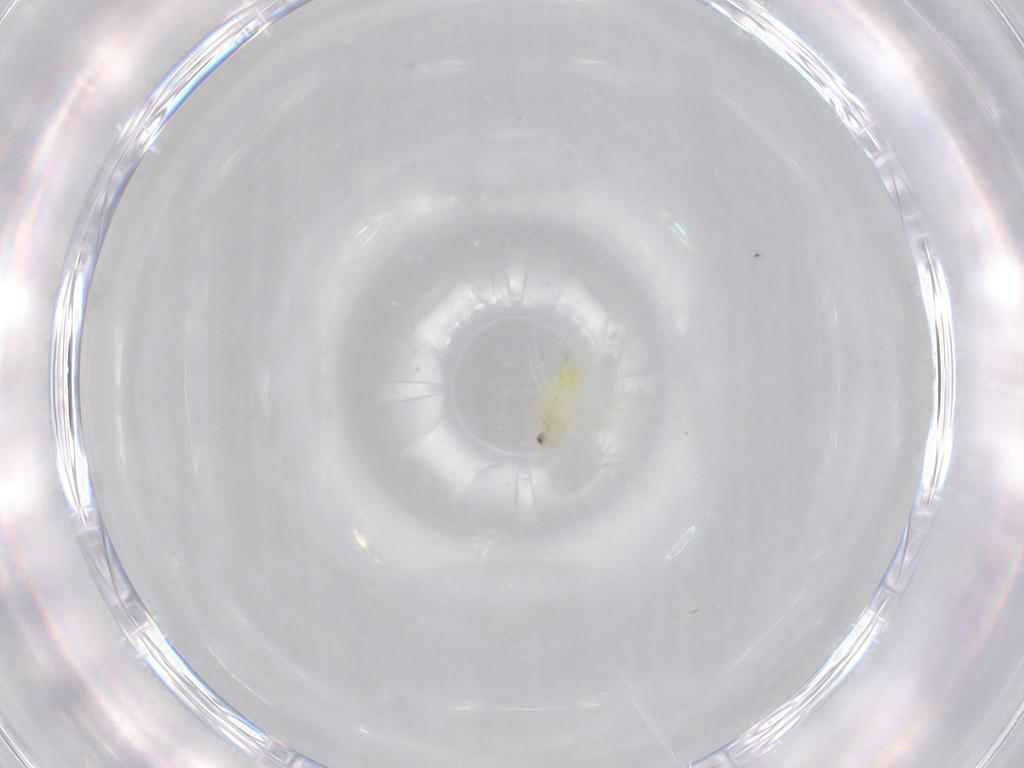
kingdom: Animalia
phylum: Arthropoda
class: Insecta
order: Hemiptera
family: Aleyrodidae
